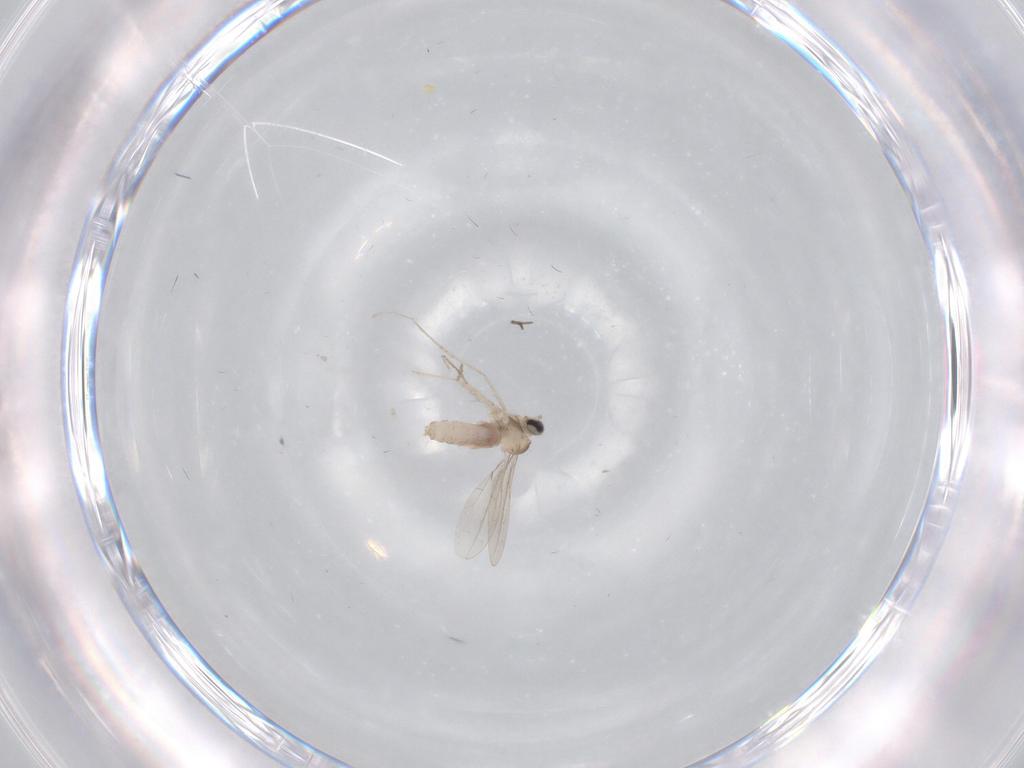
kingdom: Animalia
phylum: Arthropoda
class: Insecta
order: Diptera
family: Cecidomyiidae
